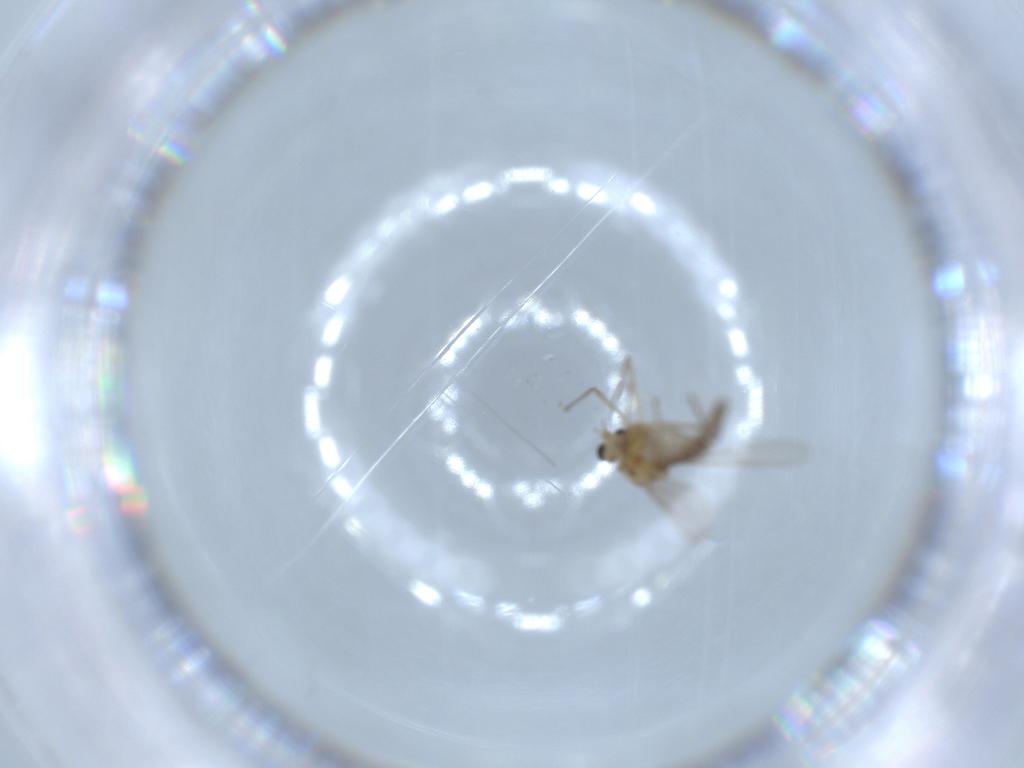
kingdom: Animalia
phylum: Arthropoda
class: Insecta
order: Diptera
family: Chironomidae
